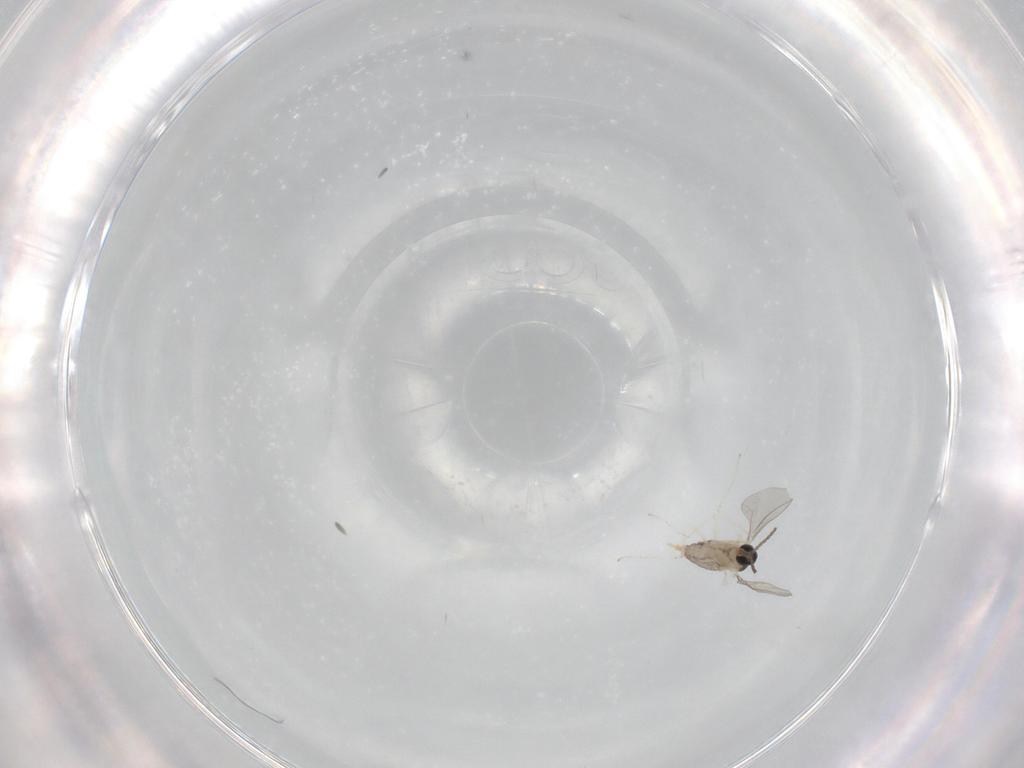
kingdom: Animalia
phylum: Arthropoda
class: Insecta
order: Diptera
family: Cecidomyiidae
